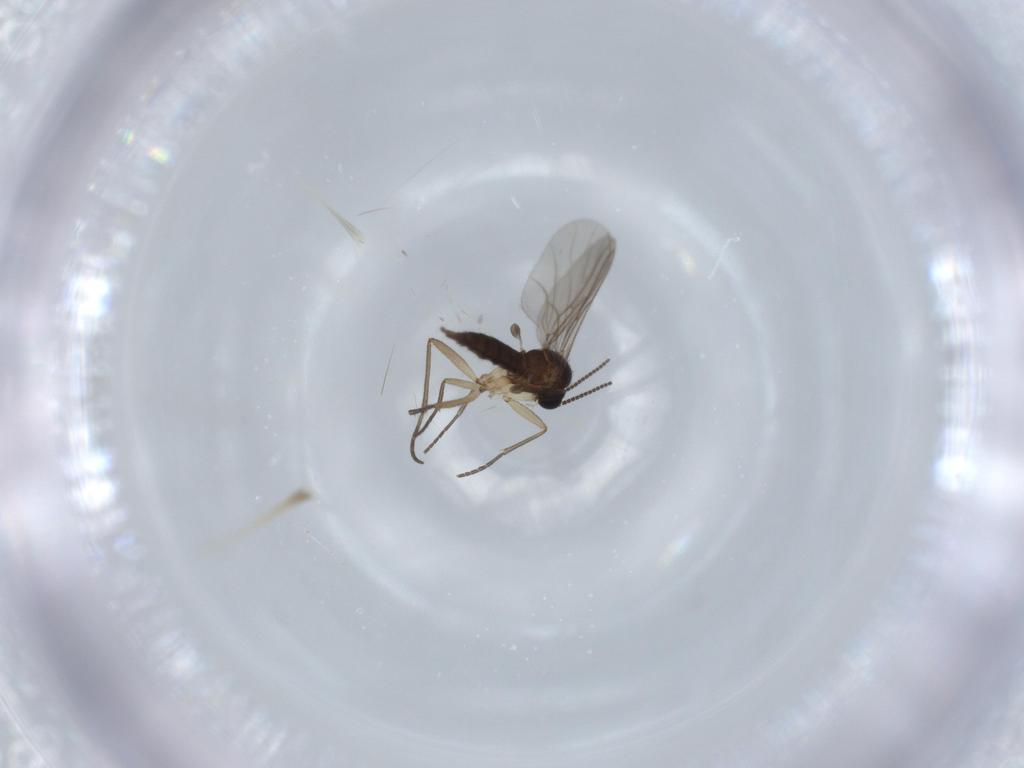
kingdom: Animalia
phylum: Arthropoda
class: Insecta
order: Diptera
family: Sciaridae
